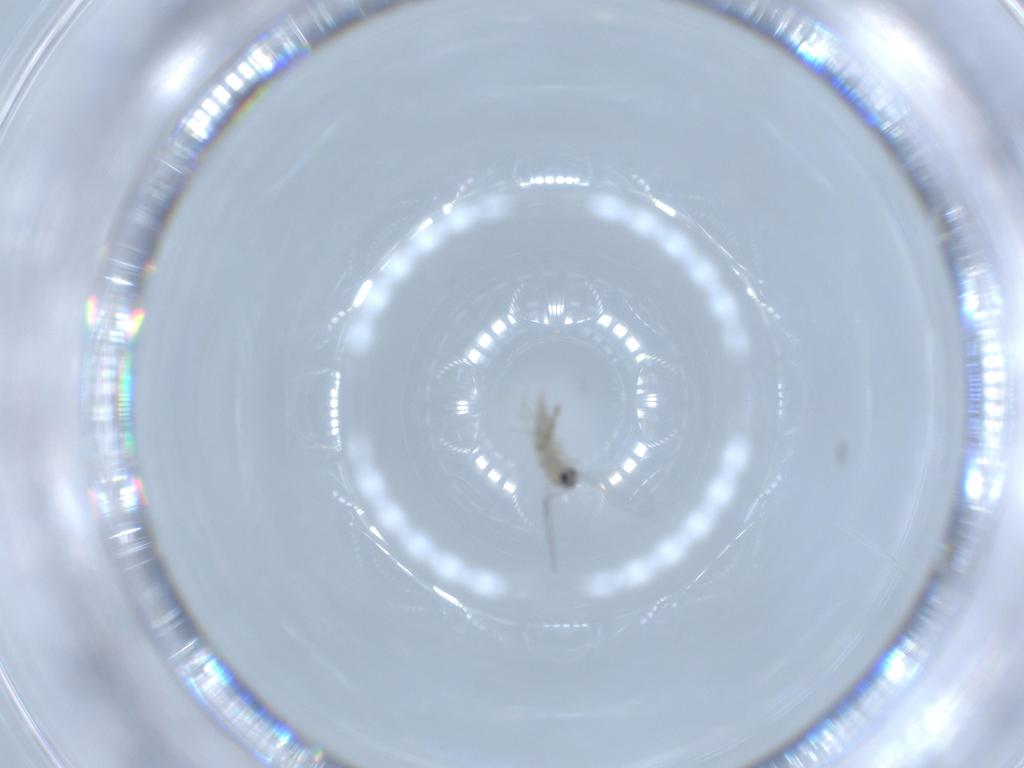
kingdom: Animalia
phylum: Arthropoda
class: Insecta
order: Diptera
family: Cecidomyiidae
